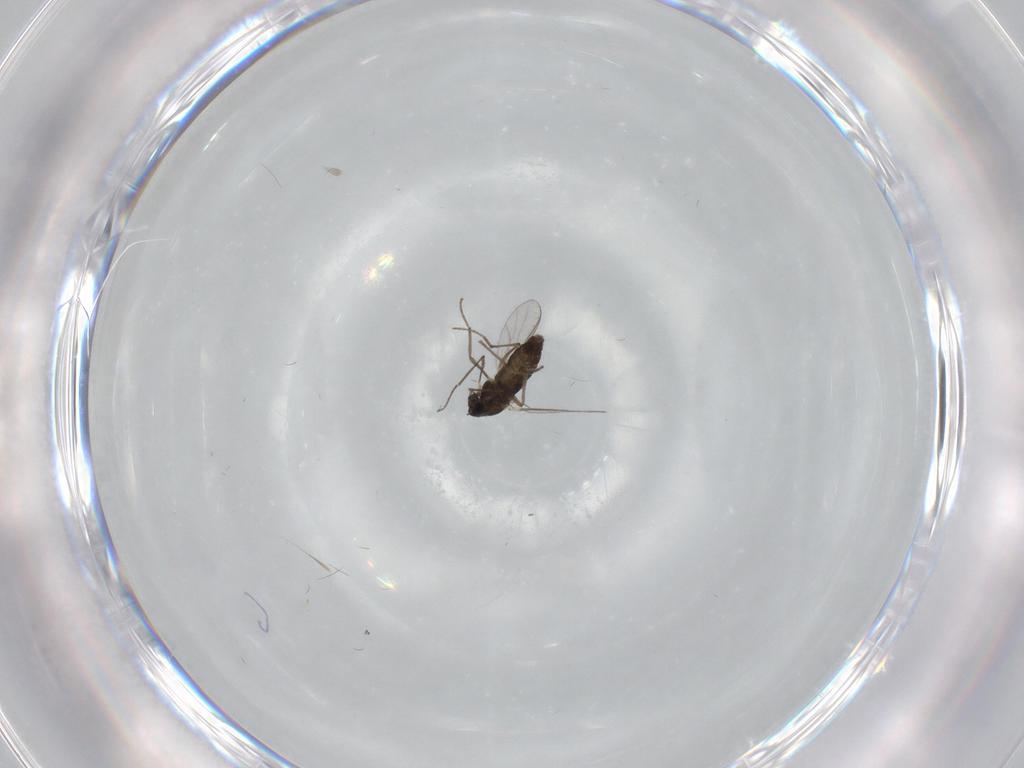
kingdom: Animalia
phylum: Arthropoda
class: Insecta
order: Diptera
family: Chironomidae
